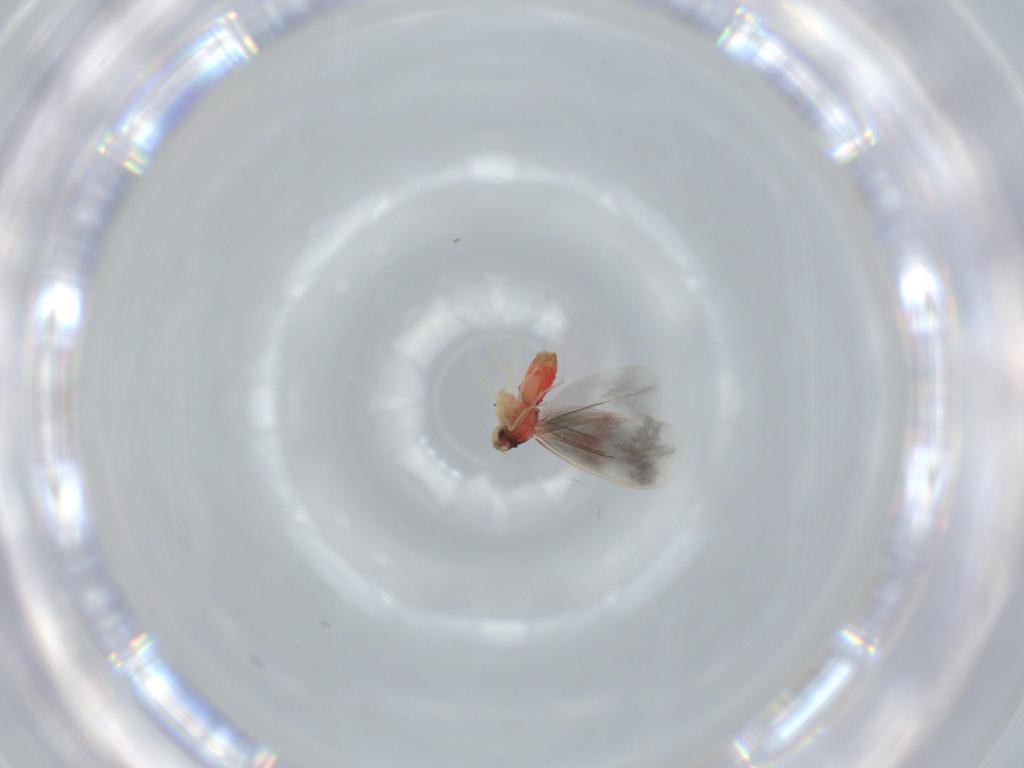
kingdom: Animalia
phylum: Arthropoda
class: Insecta
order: Hemiptera
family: Aleyrodidae
